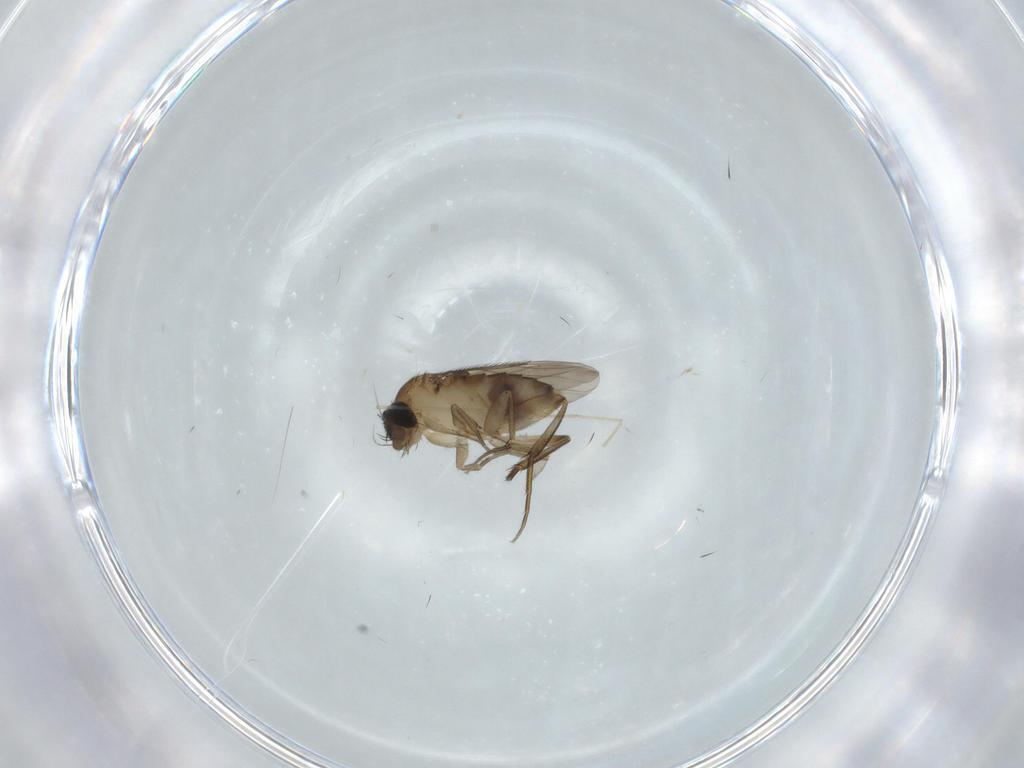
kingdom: Animalia
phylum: Arthropoda
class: Insecta
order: Diptera
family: Phoridae
